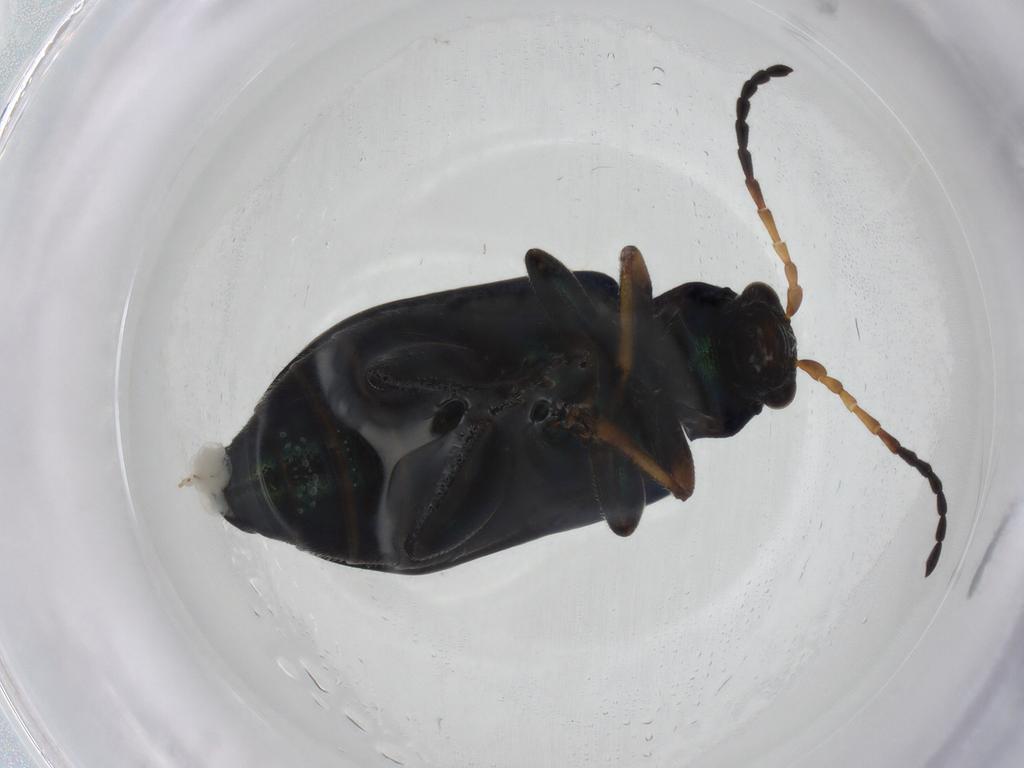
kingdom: Animalia
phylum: Arthropoda
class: Insecta
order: Coleoptera
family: Chrysomelidae
